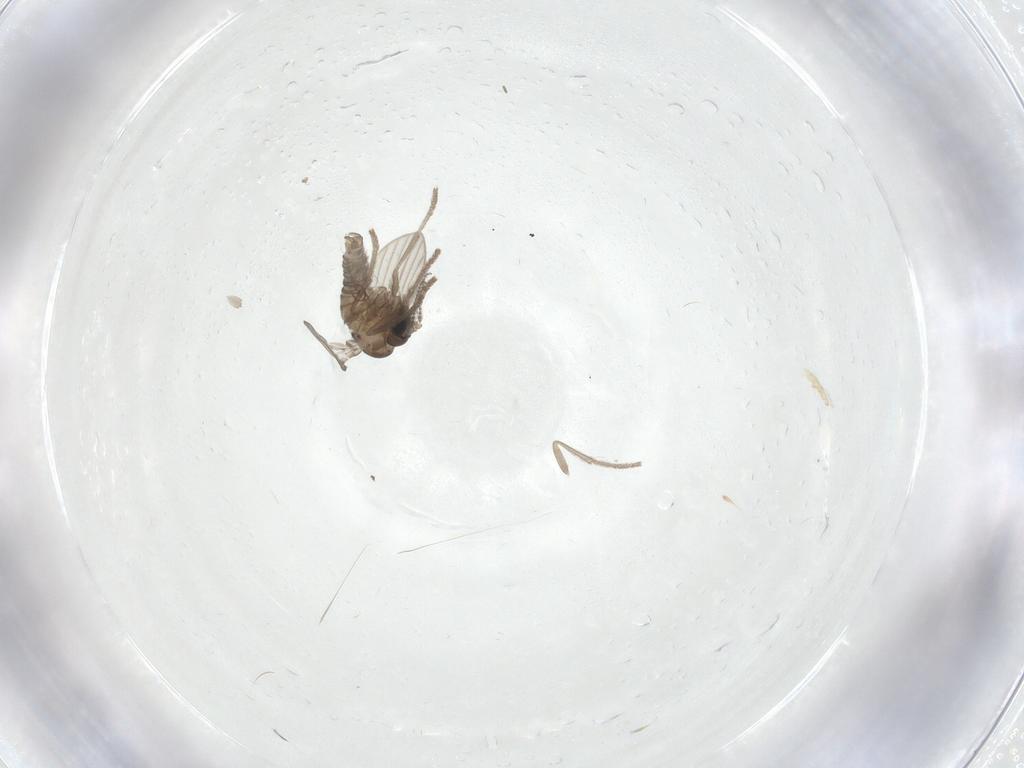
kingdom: Animalia
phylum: Arthropoda
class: Insecta
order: Diptera
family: Psychodidae
